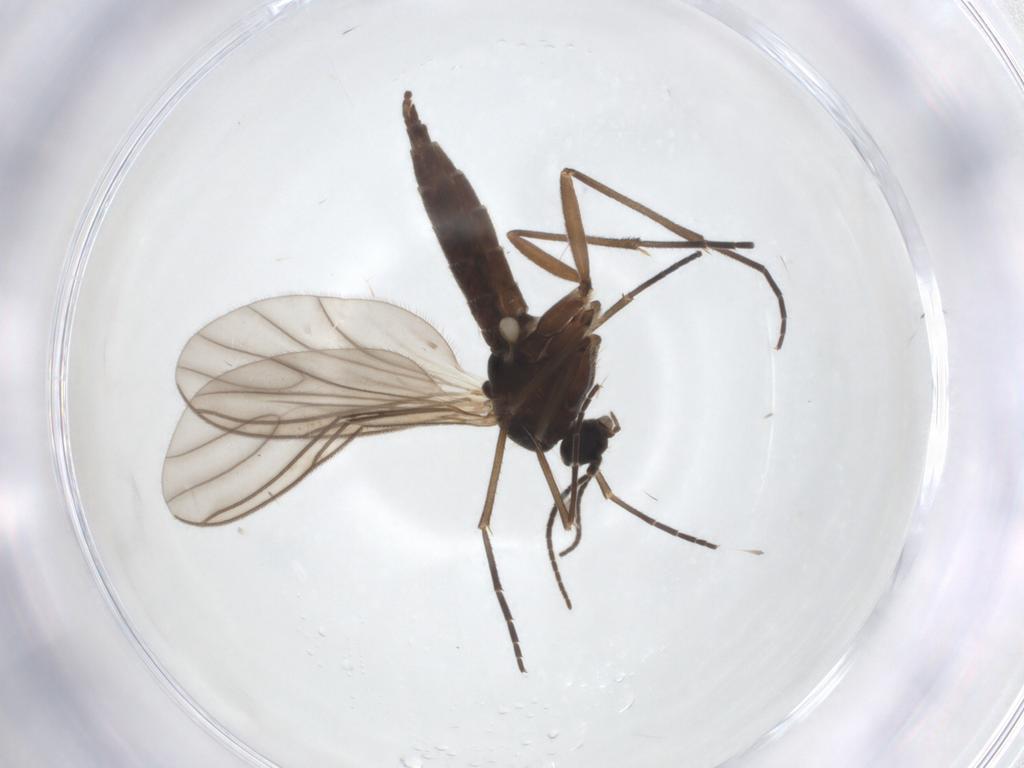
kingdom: Animalia
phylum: Arthropoda
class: Insecta
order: Diptera
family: Sciaridae
